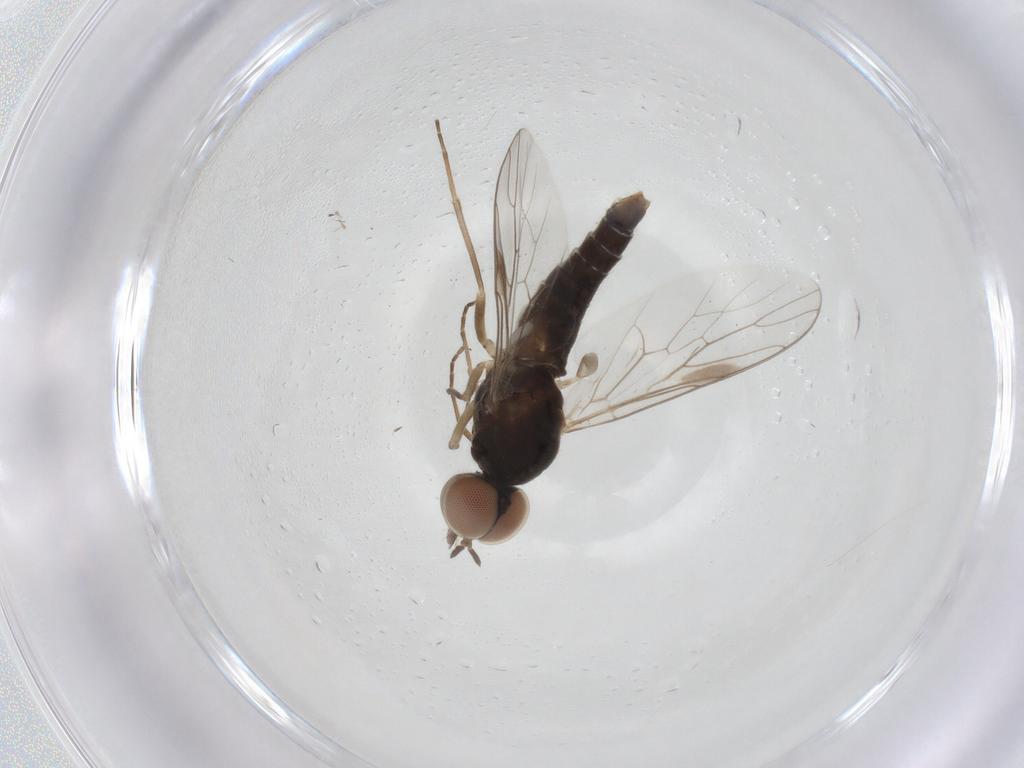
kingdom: Animalia
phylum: Arthropoda
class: Insecta
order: Diptera
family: Scenopinidae
